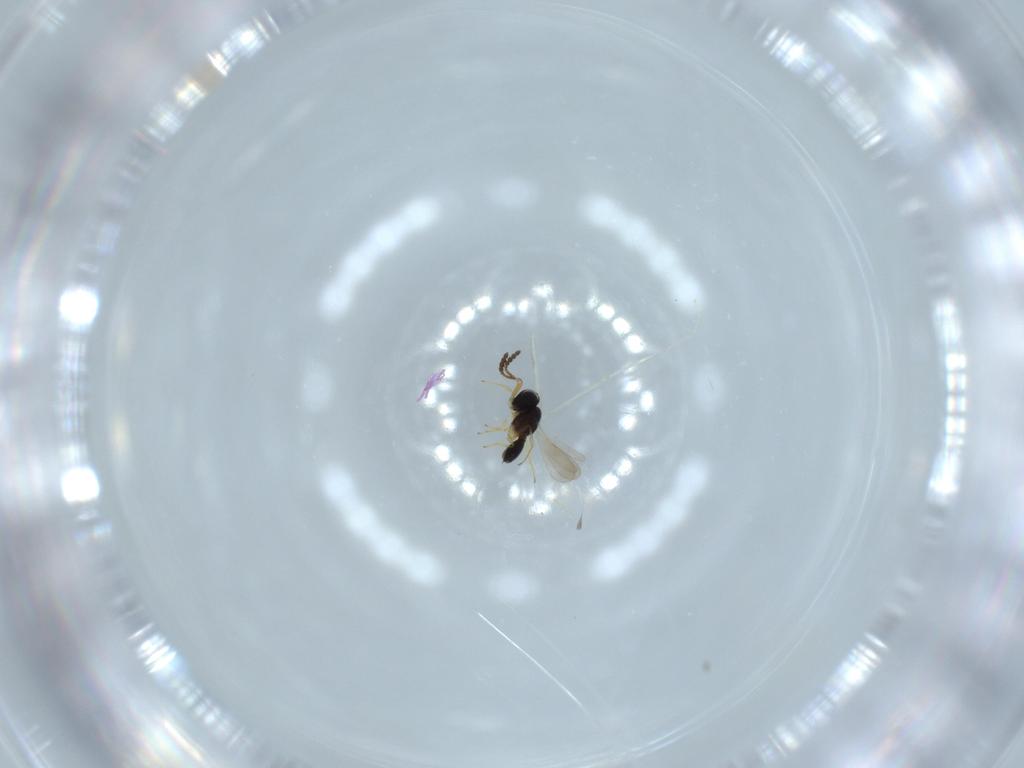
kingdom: Animalia
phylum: Arthropoda
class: Insecta
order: Hymenoptera
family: Scelionidae
